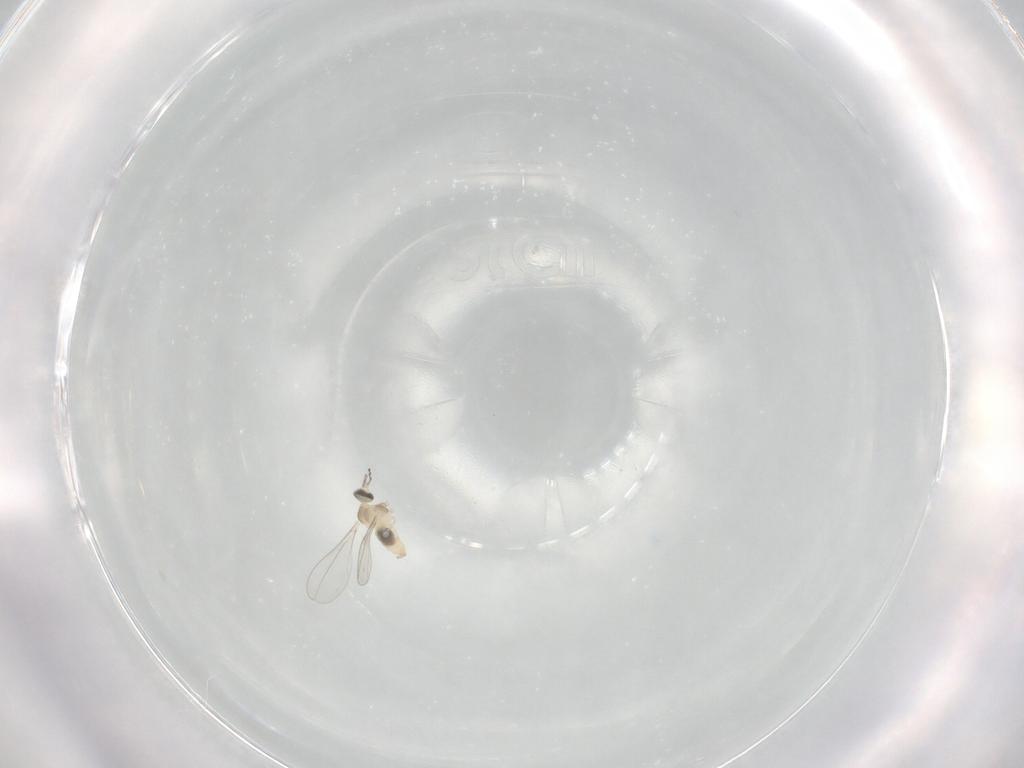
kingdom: Animalia
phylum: Arthropoda
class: Insecta
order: Diptera
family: Cecidomyiidae
